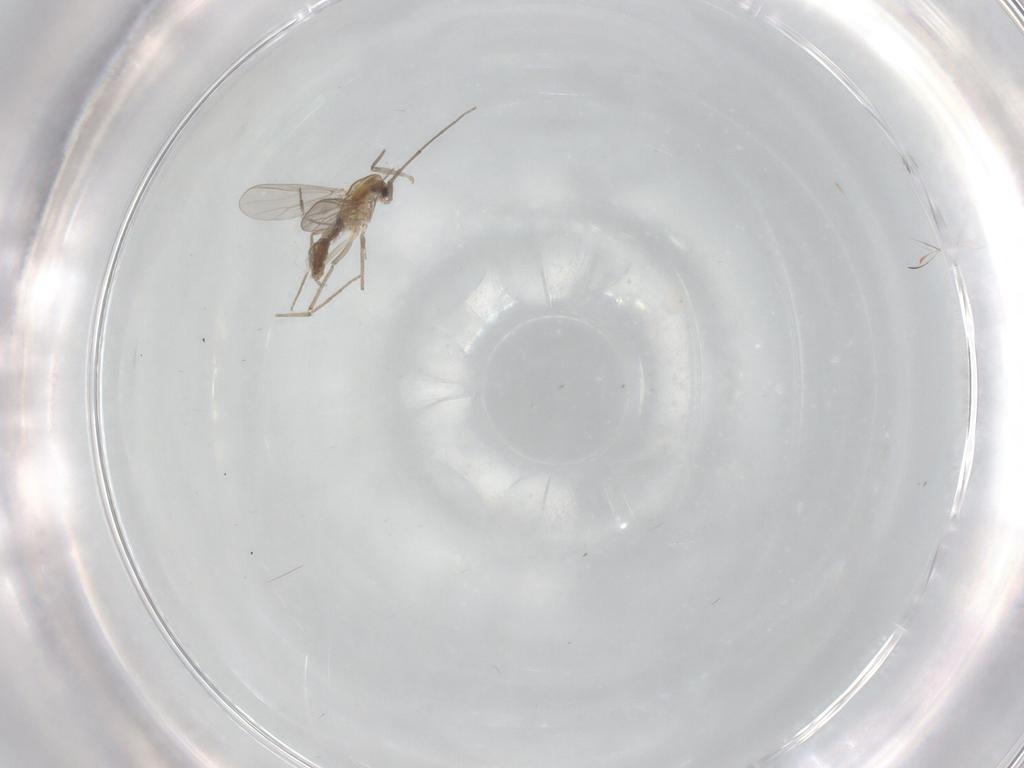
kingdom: Animalia
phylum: Arthropoda
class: Insecta
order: Diptera
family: Chironomidae
